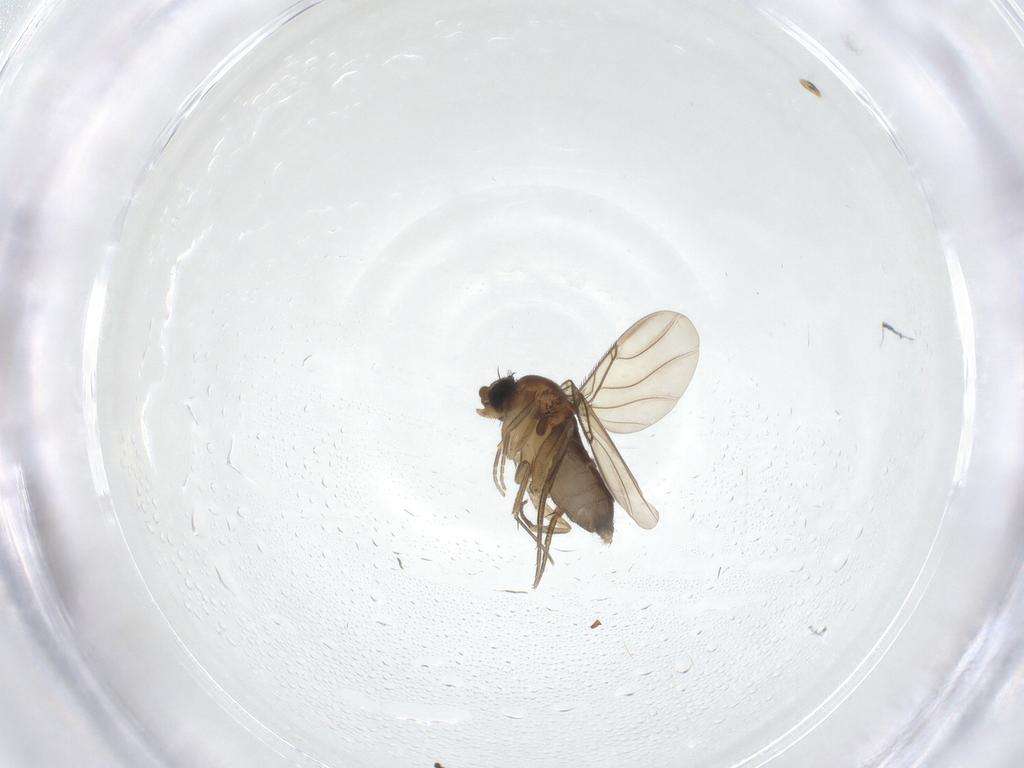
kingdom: Animalia
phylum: Arthropoda
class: Insecta
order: Diptera
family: Phoridae
